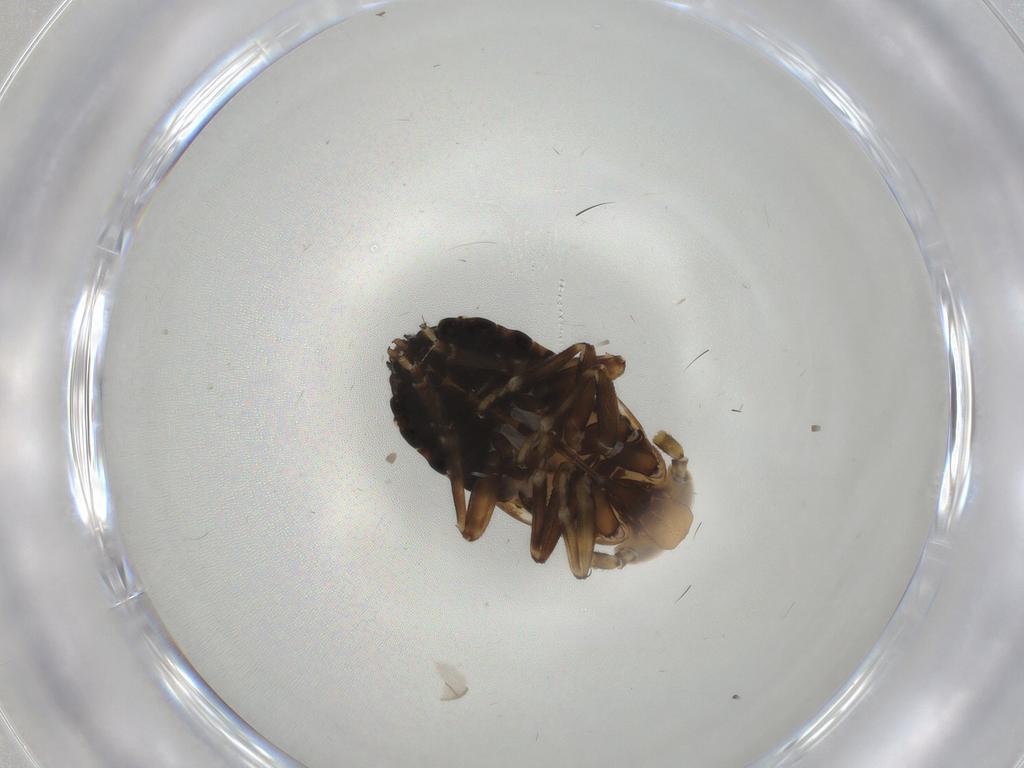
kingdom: Animalia
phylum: Arthropoda
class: Insecta
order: Hemiptera
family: Delphacidae
